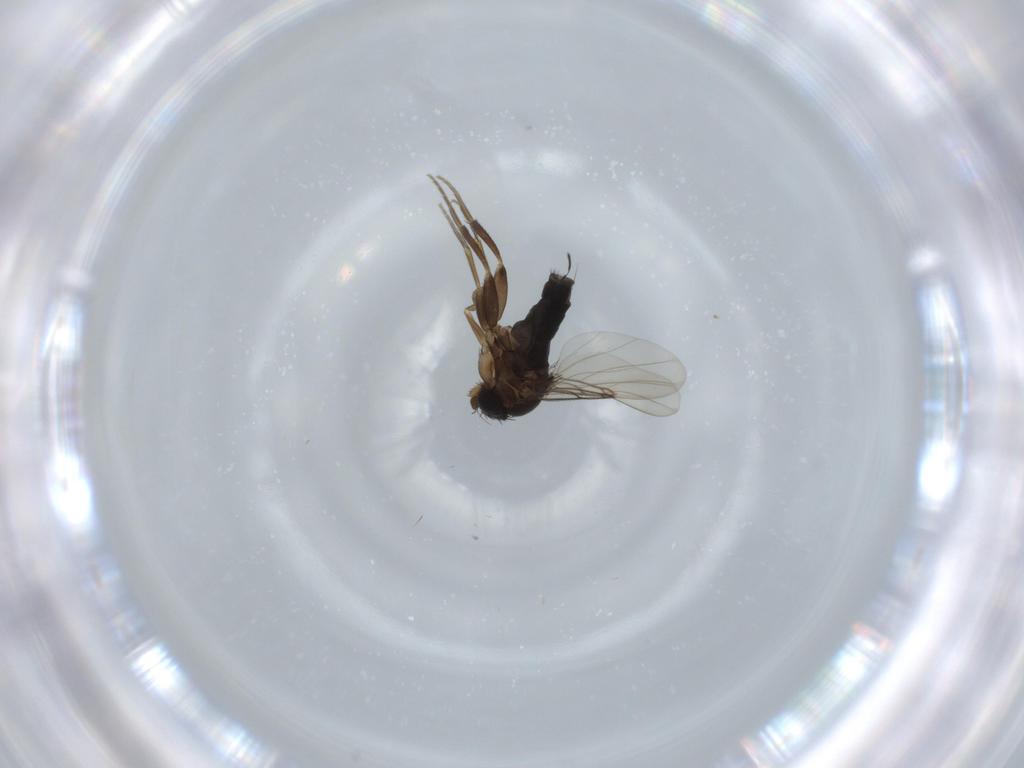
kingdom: Animalia
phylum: Arthropoda
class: Insecta
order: Diptera
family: Phoridae
